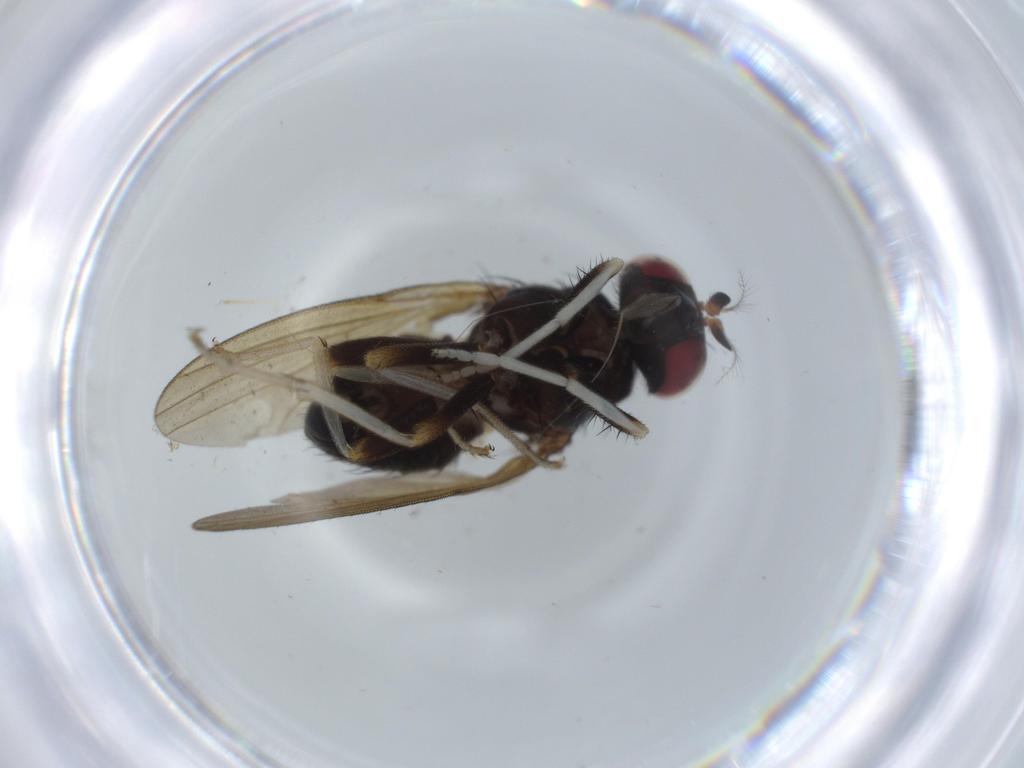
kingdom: Animalia
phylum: Arthropoda
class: Insecta
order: Diptera
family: Cecidomyiidae
